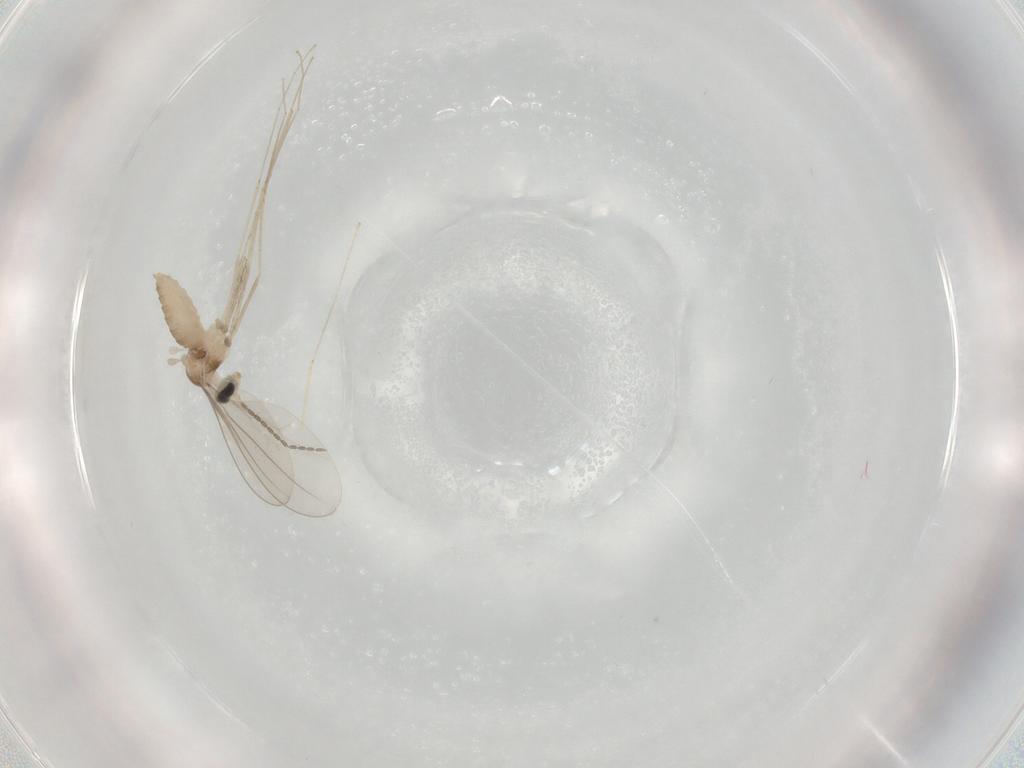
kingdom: Animalia
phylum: Arthropoda
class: Insecta
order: Diptera
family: Cecidomyiidae
